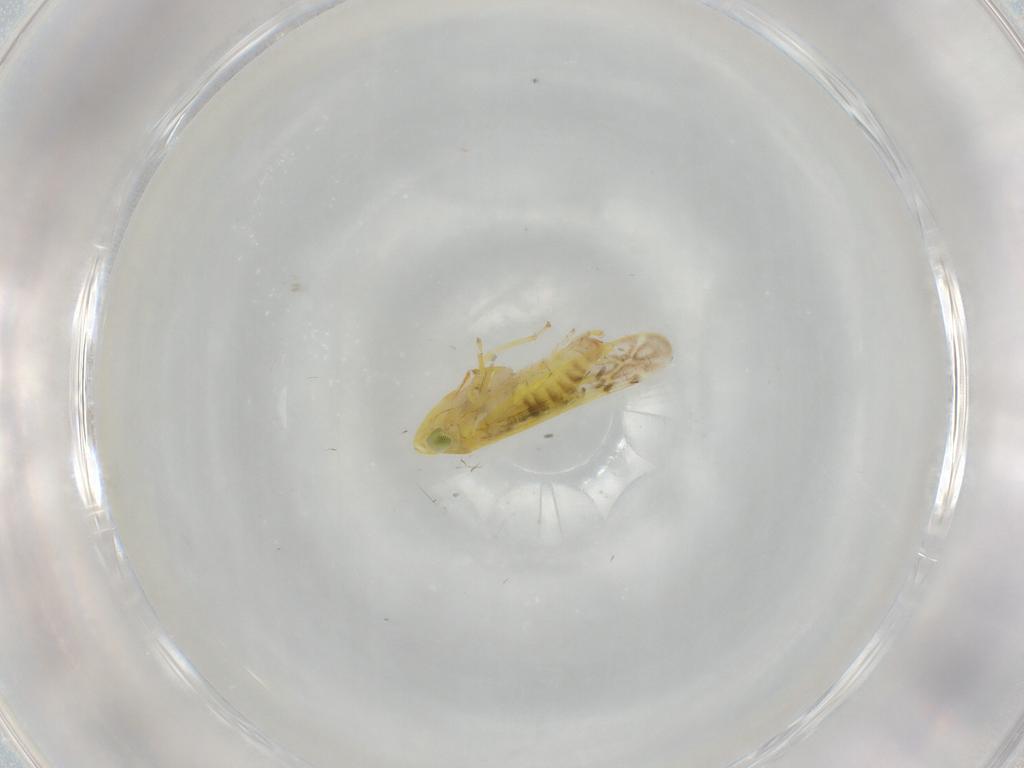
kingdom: Animalia
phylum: Arthropoda
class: Insecta
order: Hemiptera
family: Cicadellidae
